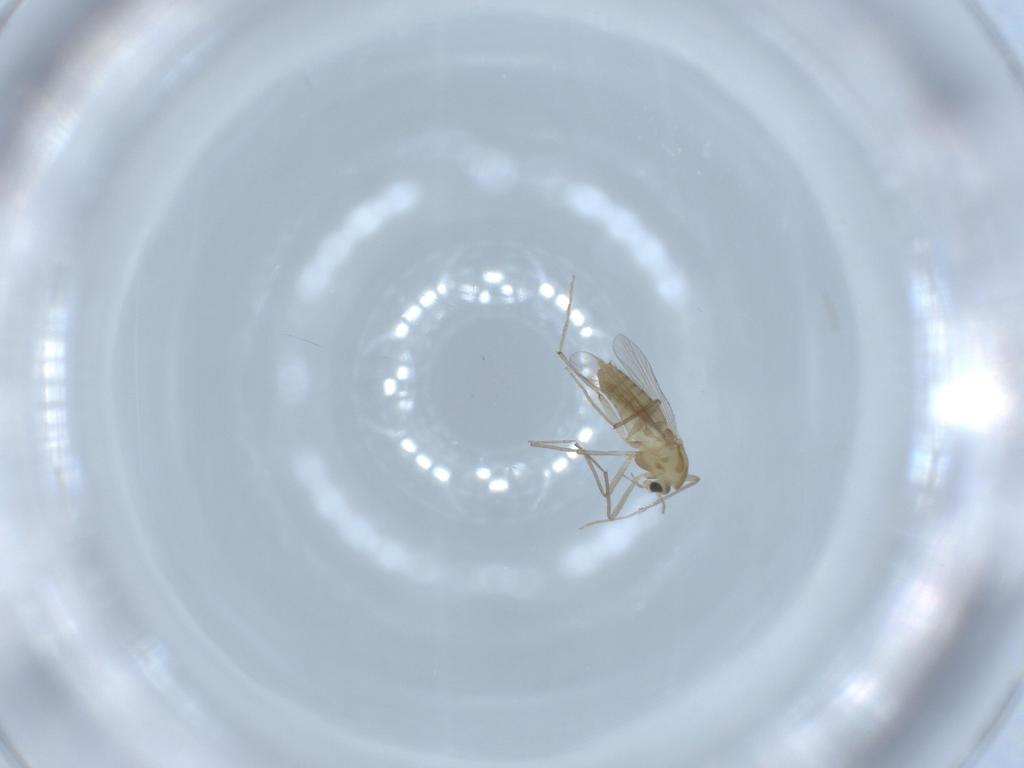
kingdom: Animalia
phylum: Arthropoda
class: Insecta
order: Diptera
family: Chironomidae
